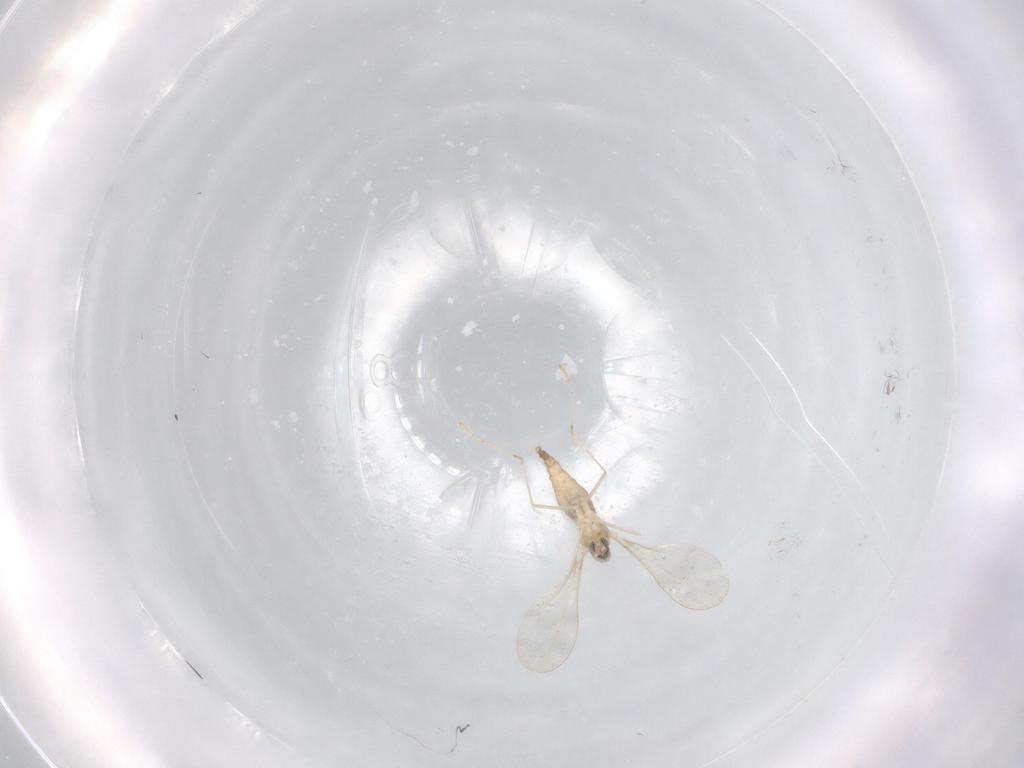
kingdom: Animalia
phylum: Arthropoda
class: Insecta
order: Diptera
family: Cecidomyiidae
